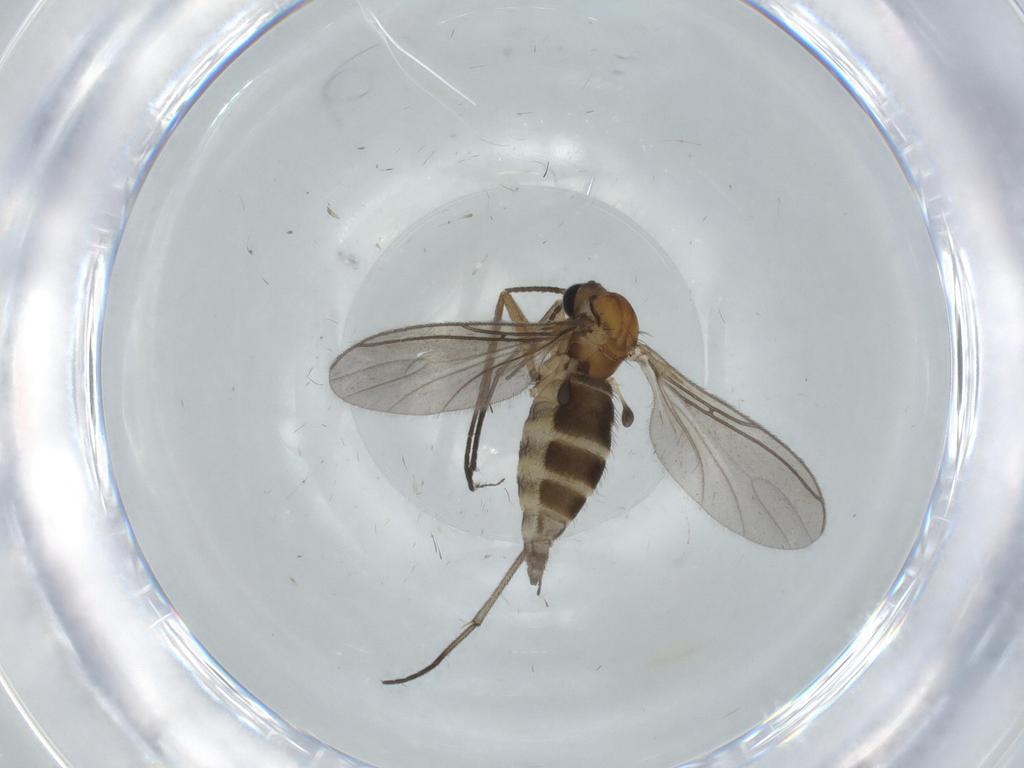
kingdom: Animalia
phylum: Arthropoda
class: Insecta
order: Diptera
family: Sciaridae
